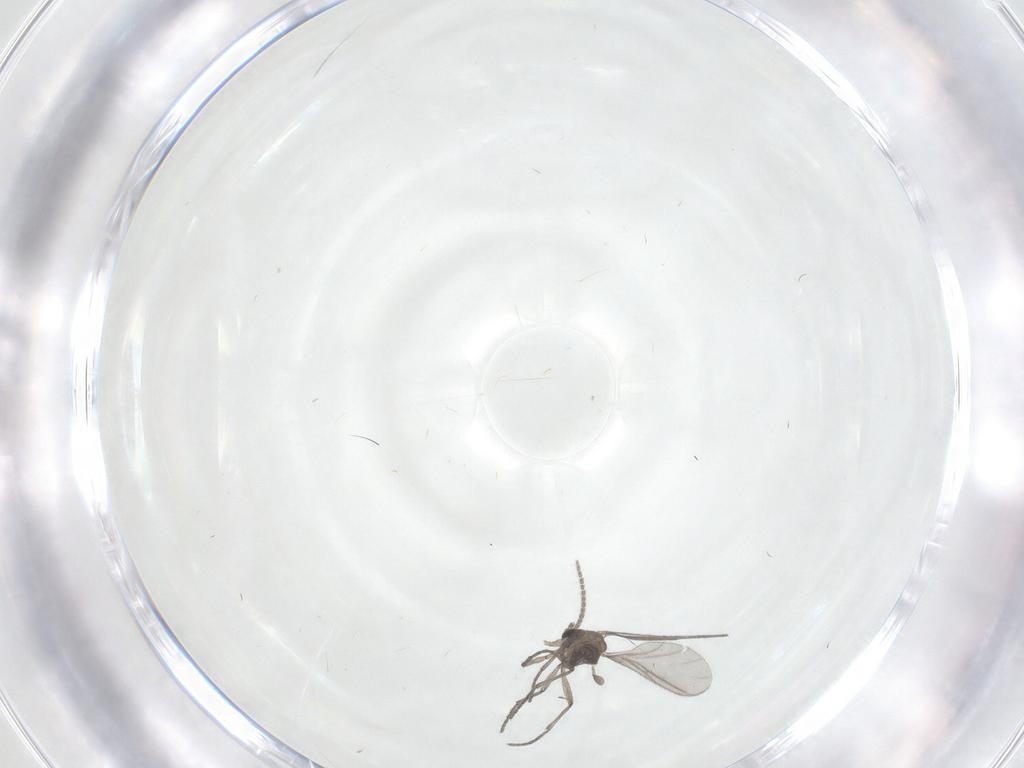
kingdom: Animalia
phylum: Arthropoda
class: Insecta
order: Diptera
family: Sciaridae
